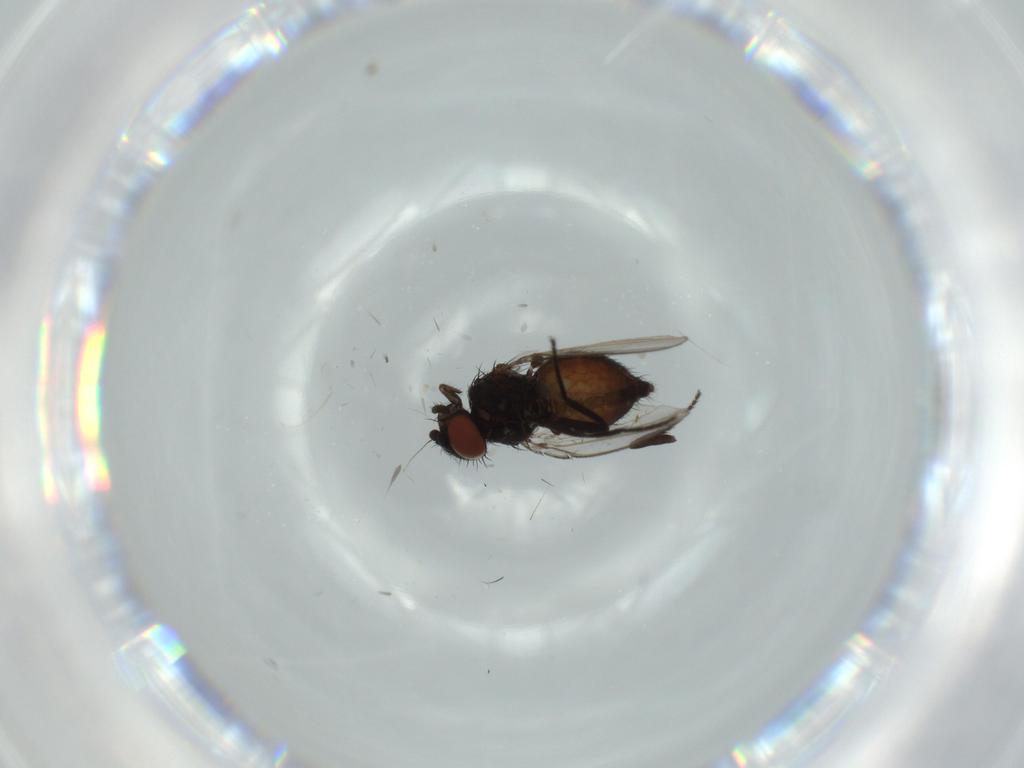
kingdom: Animalia
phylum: Arthropoda
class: Insecta
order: Diptera
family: Milichiidae
